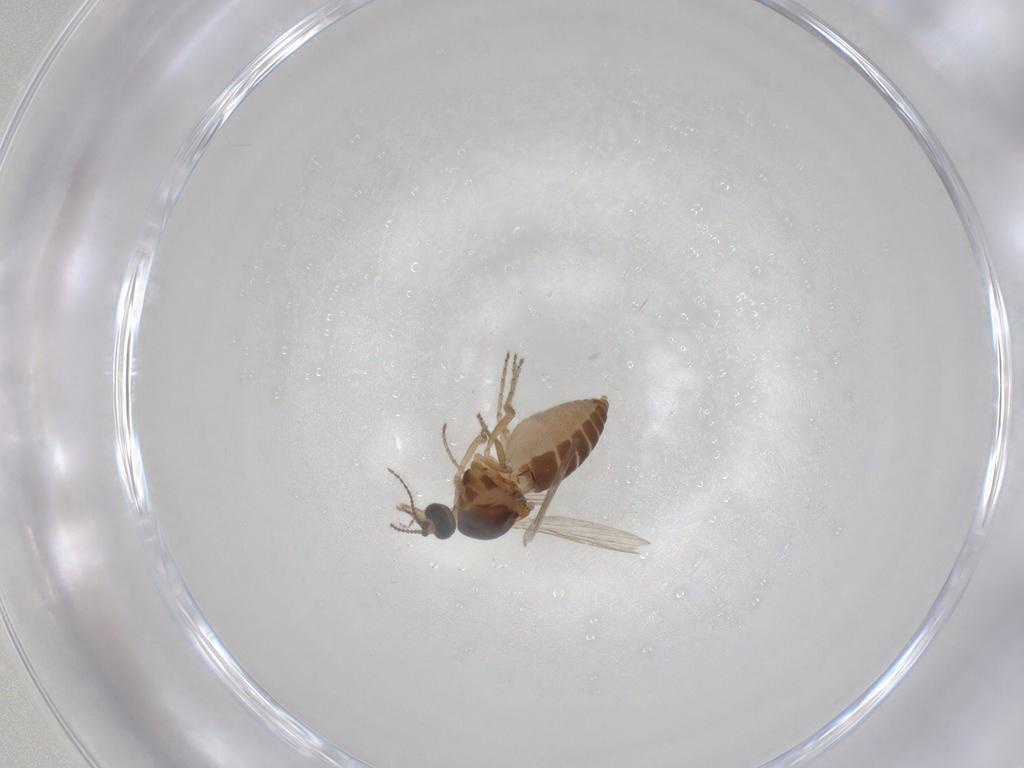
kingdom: Animalia
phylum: Arthropoda
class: Insecta
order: Diptera
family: Ceratopogonidae
